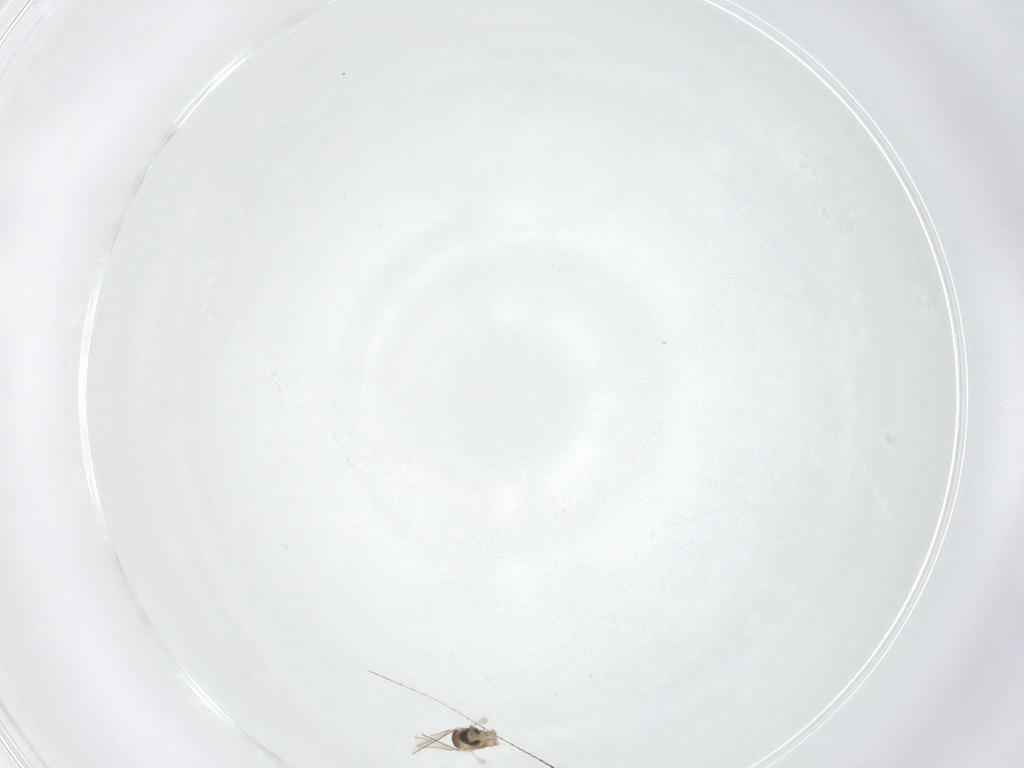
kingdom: Animalia
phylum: Arthropoda
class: Insecta
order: Diptera
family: Cecidomyiidae
